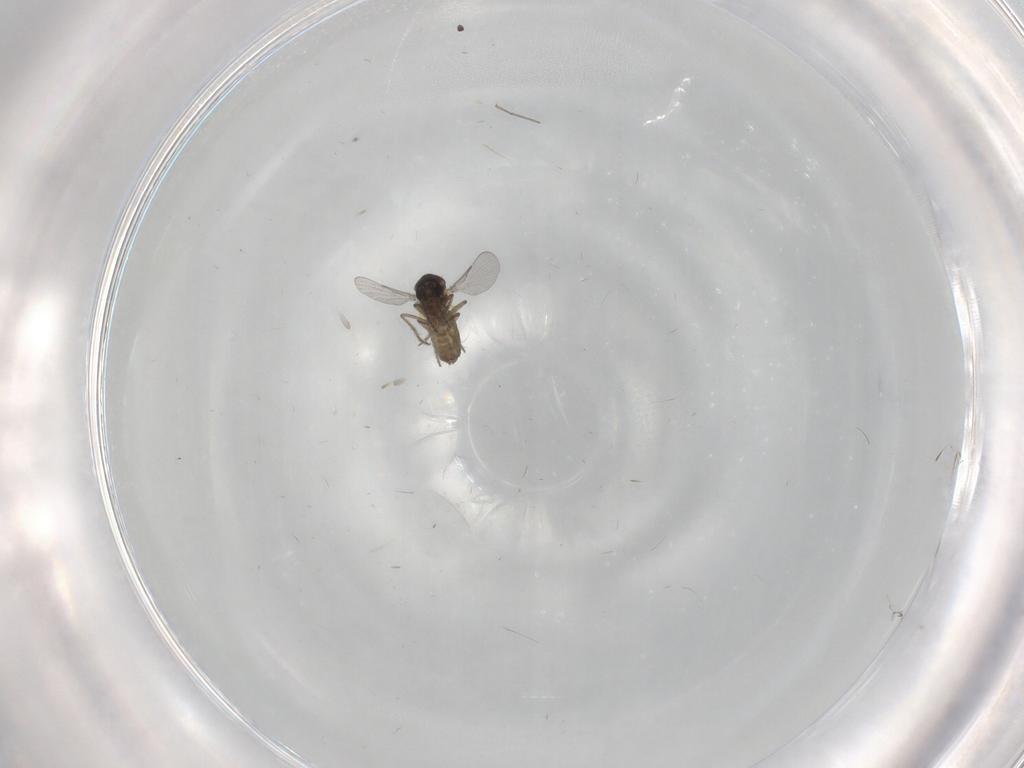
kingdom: Animalia
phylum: Arthropoda
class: Insecta
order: Diptera
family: Ceratopogonidae
